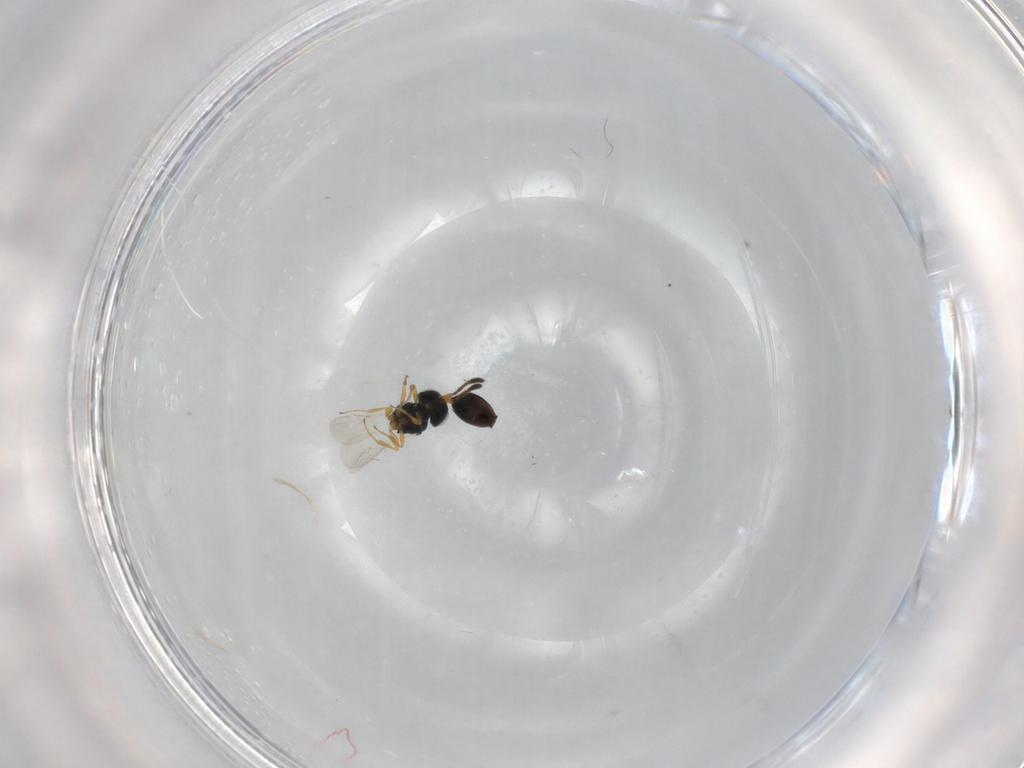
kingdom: Animalia
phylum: Arthropoda
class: Insecta
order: Hymenoptera
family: Scelionidae
